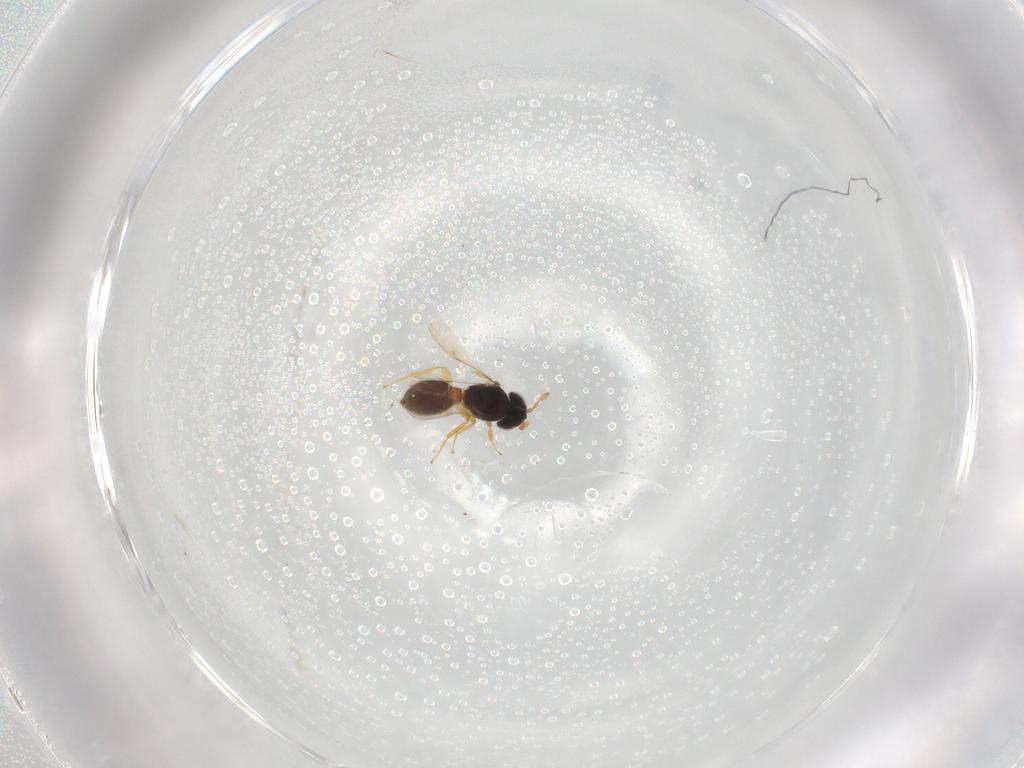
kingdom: Animalia
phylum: Arthropoda
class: Insecta
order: Hymenoptera
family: Scelionidae
